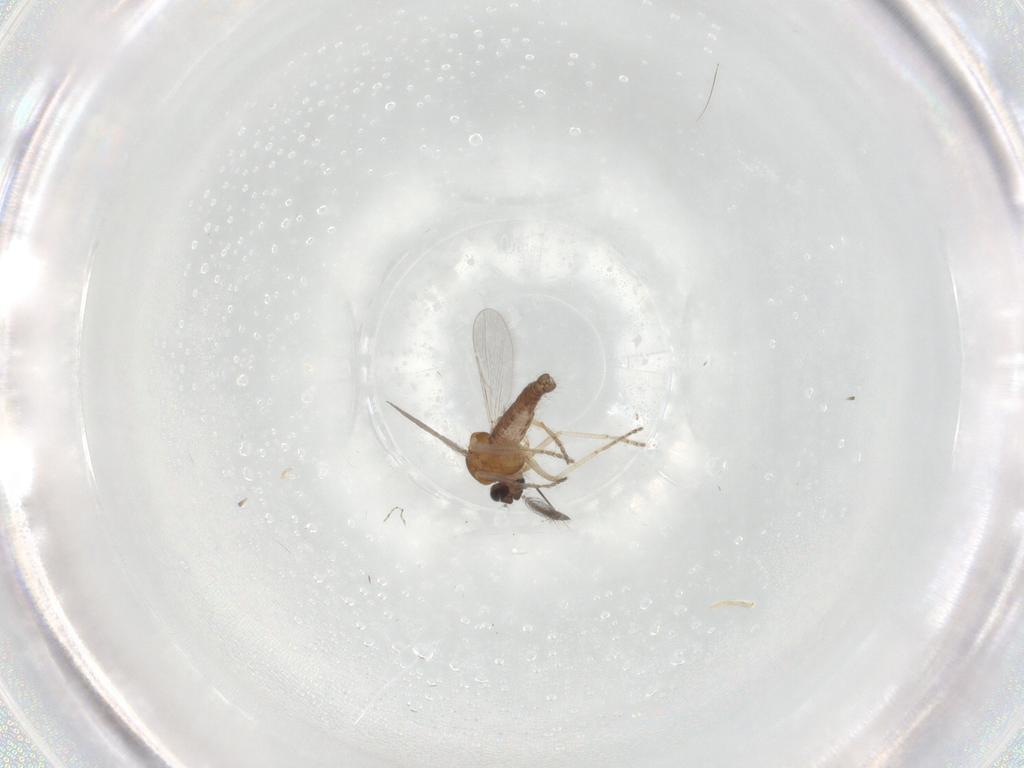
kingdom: Animalia
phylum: Arthropoda
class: Insecta
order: Diptera
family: Ceratopogonidae
